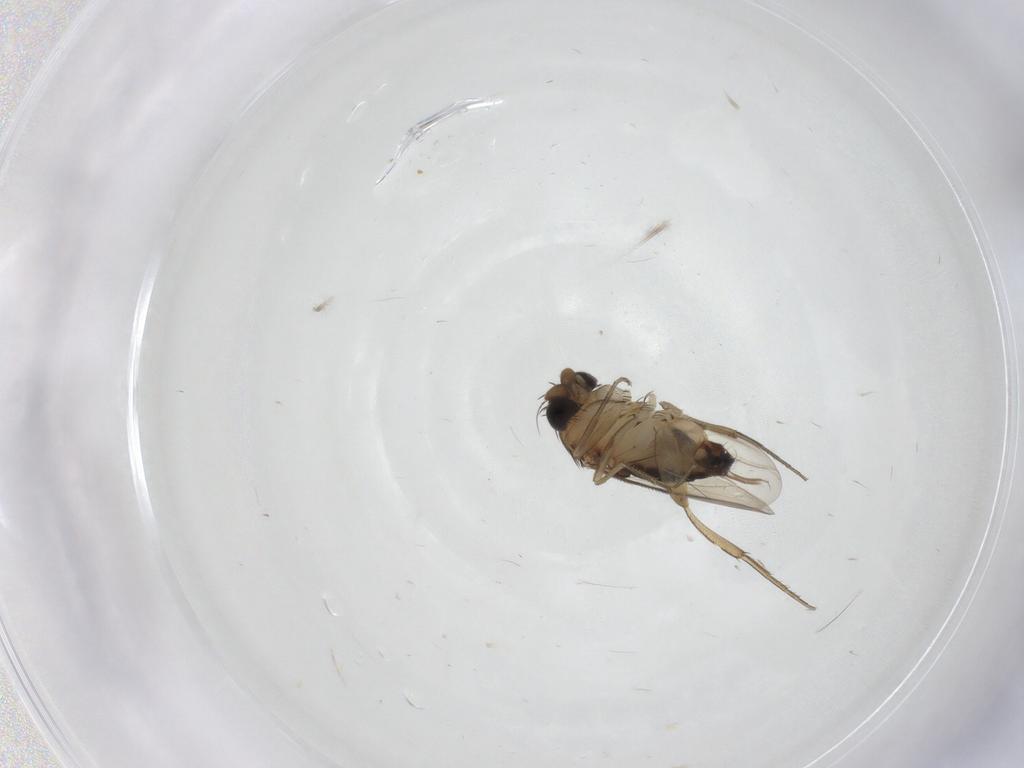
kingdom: Animalia
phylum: Arthropoda
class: Insecta
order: Diptera
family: Phoridae
